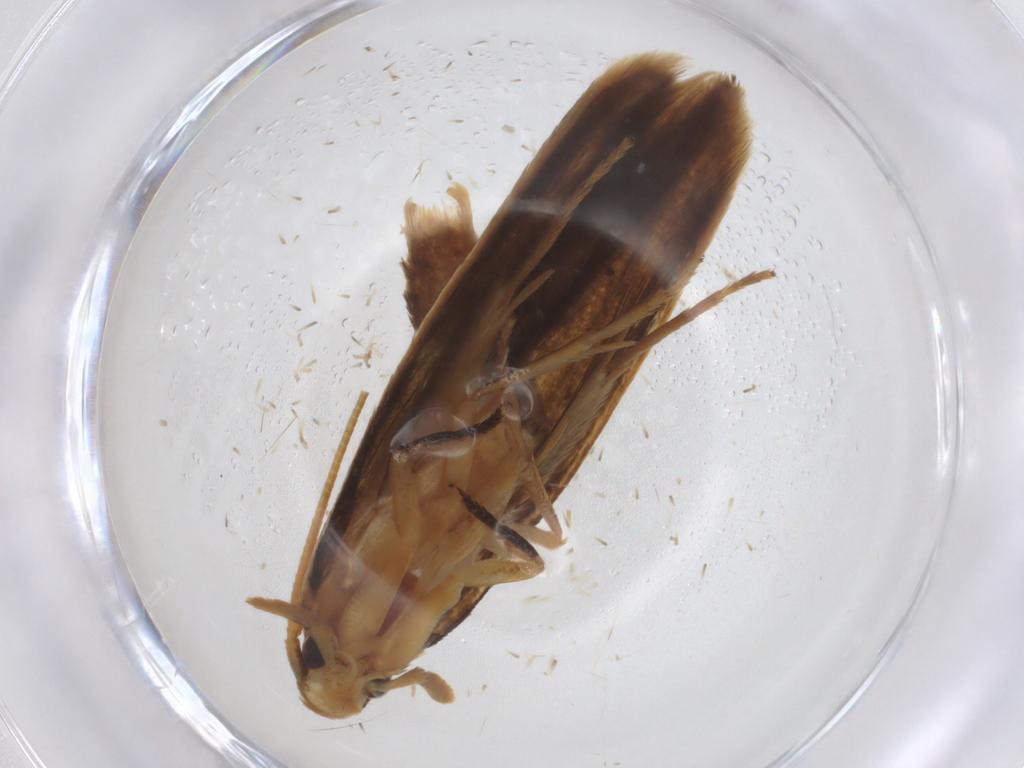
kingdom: Animalia
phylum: Arthropoda
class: Insecta
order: Lepidoptera
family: Tineidae
